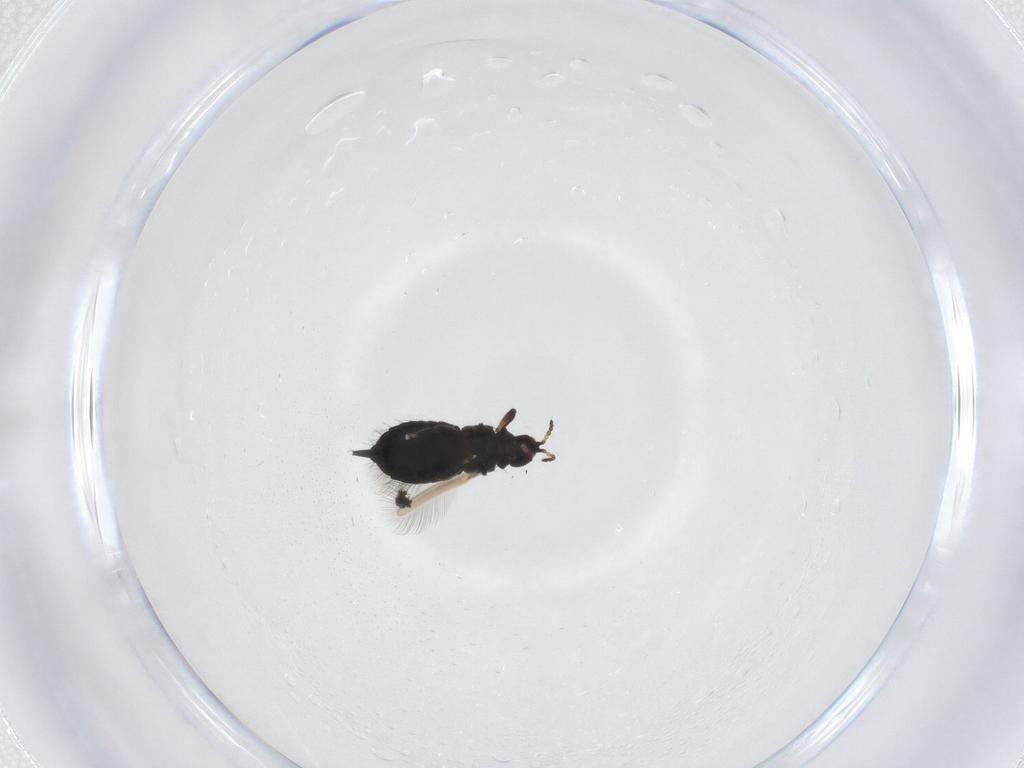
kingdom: Animalia
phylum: Arthropoda
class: Insecta
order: Thysanoptera
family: Phlaeothripidae
